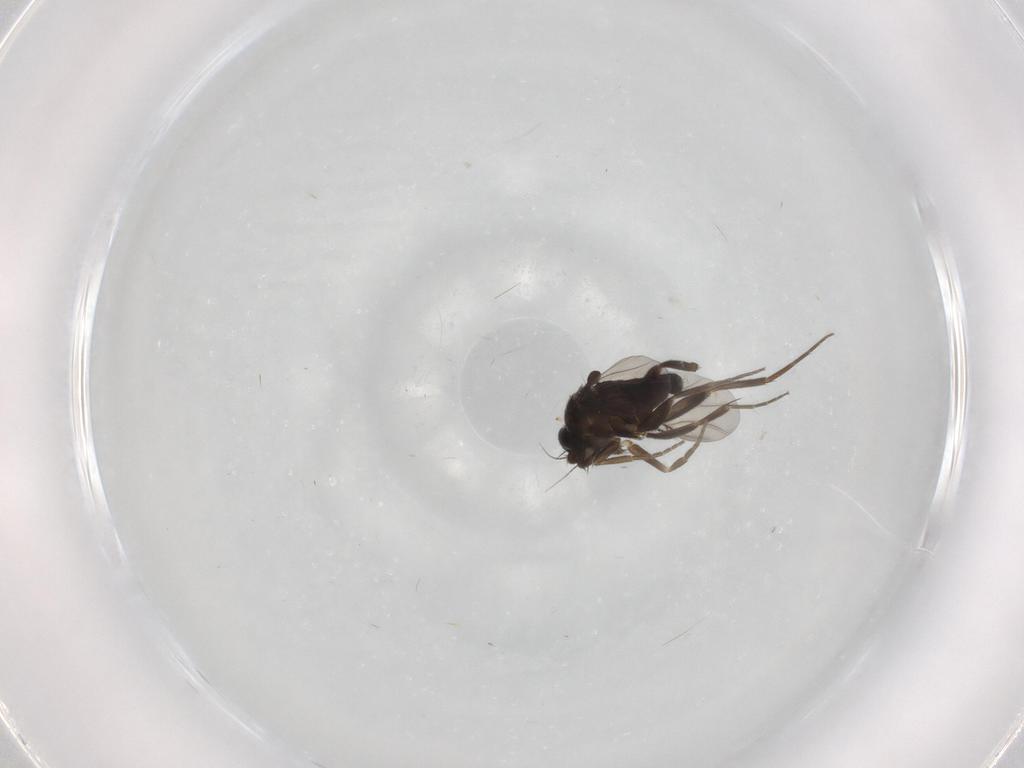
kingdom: Animalia
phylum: Arthropoda
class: Insecta
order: Diptera
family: Phoridae
